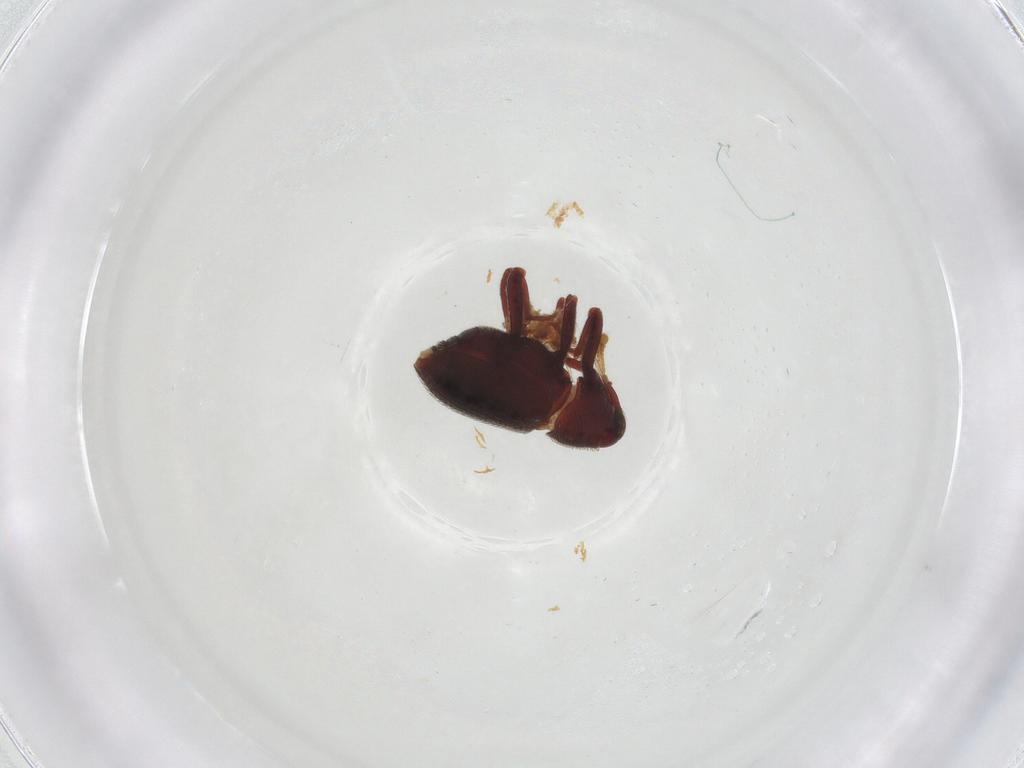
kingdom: Animalia
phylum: Arthropoda
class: Insecta
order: Coleoptera
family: Curculionidae
